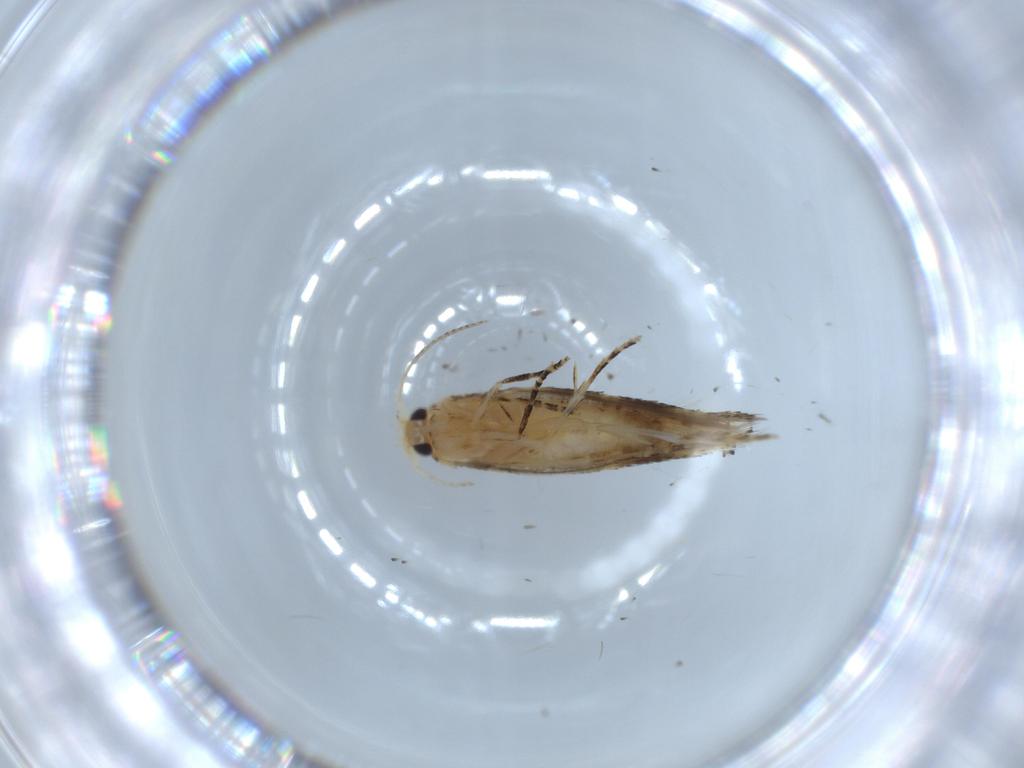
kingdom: Animalia
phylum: Arthropoda
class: Insecta
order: Lepidoptera
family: Bucculatricidae
